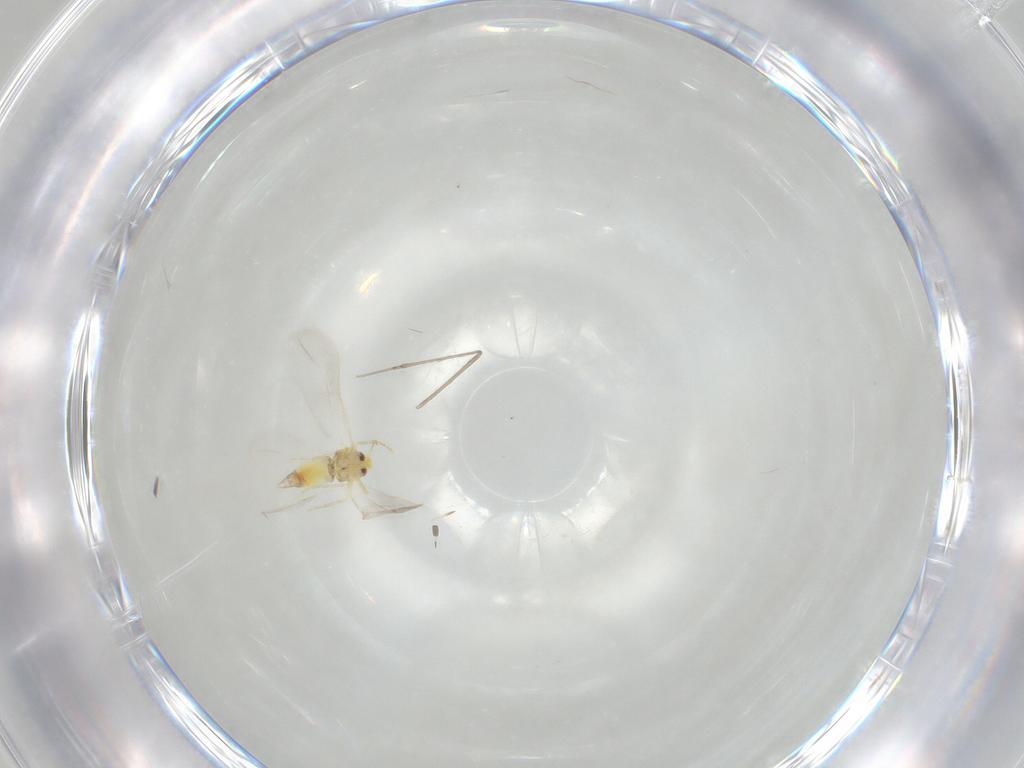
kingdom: Animalia
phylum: Arthropoda
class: Insecta
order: Hemiptera
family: Aleyrodidae
